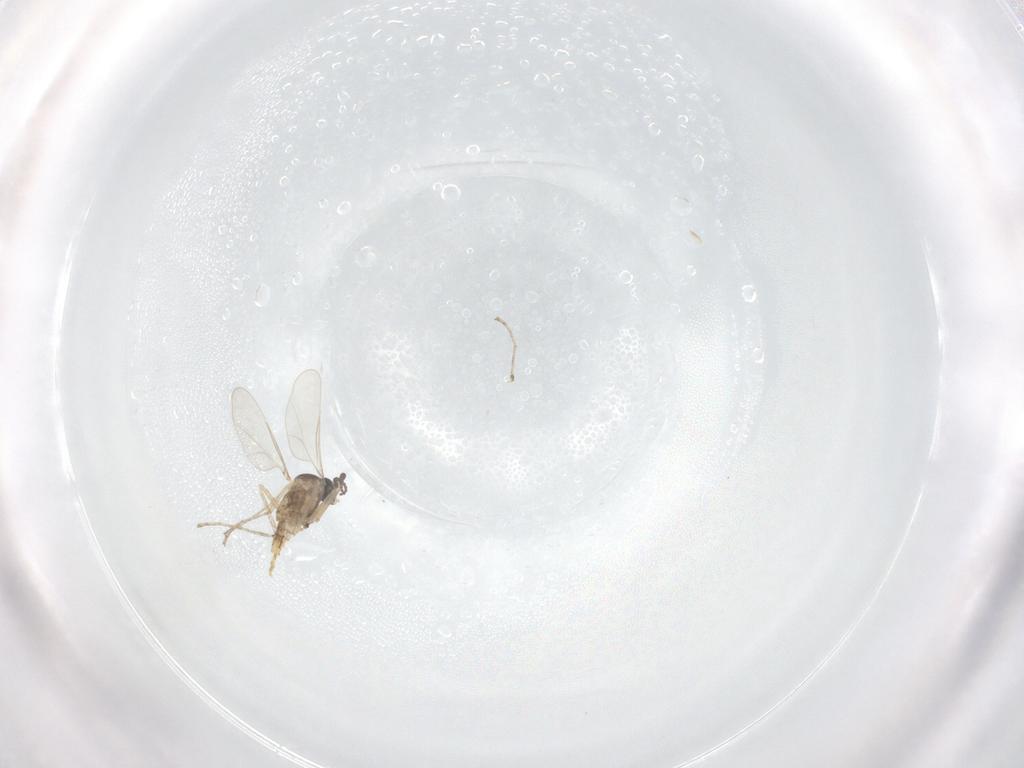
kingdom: Animalia
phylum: Arthropoda
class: Insecta
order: Diptera
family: Cecidomyiidae
